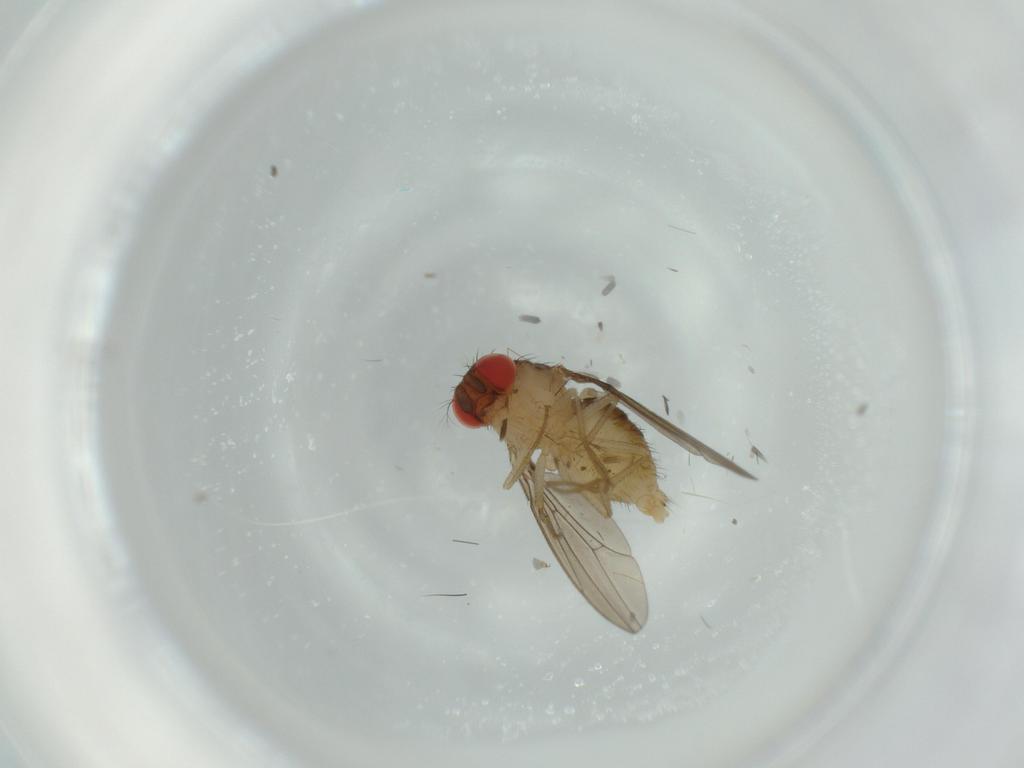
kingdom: Animalia
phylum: Arthropoda
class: Insecta
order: Diptera
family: Drosophilidae
